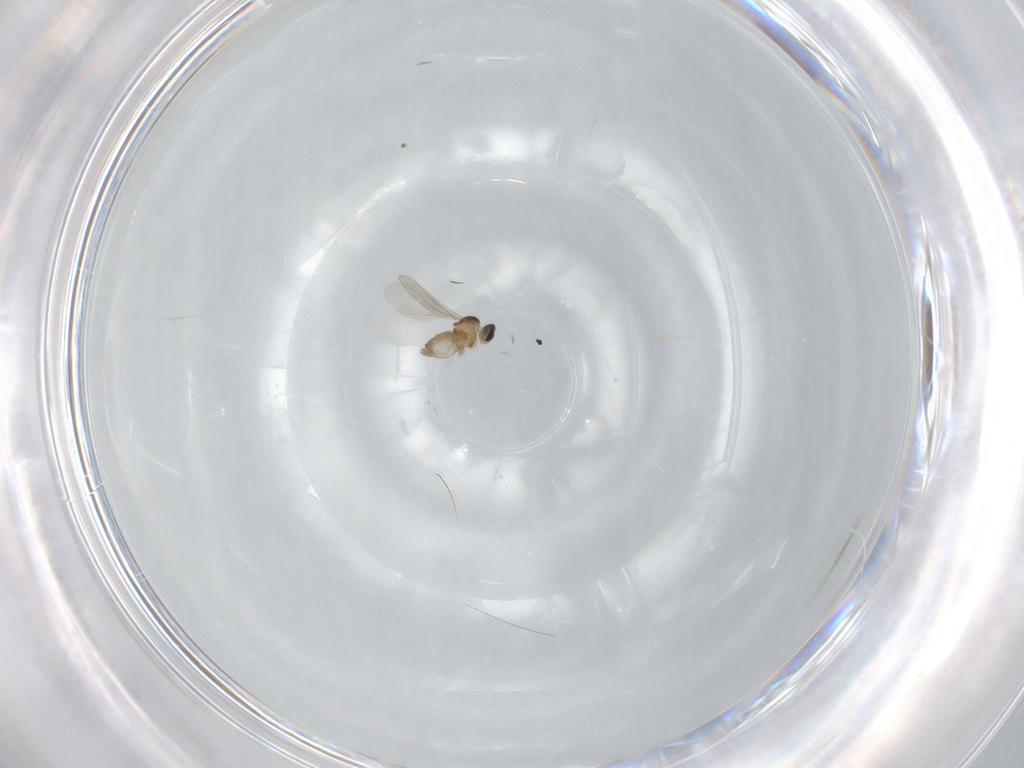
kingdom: Animalia
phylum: Arthropoda
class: Insecta
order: Diptera
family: Cecidomyiidae
